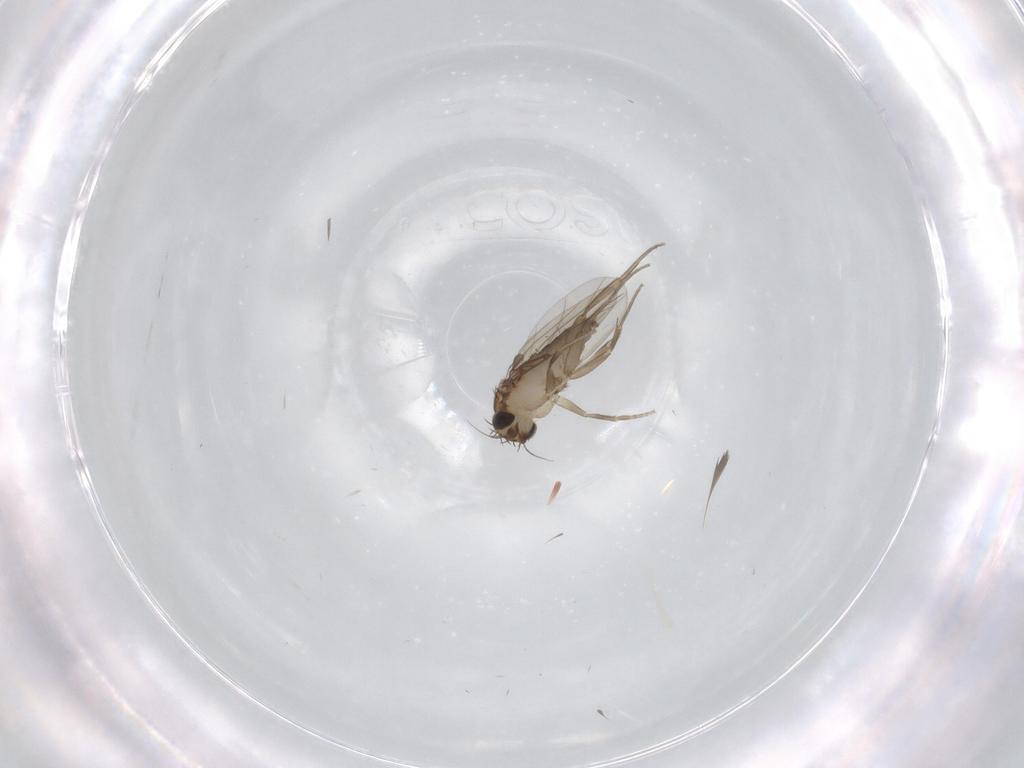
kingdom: Animalia
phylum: Arthropoda
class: Insecta
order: Diptera
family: Phoridae
